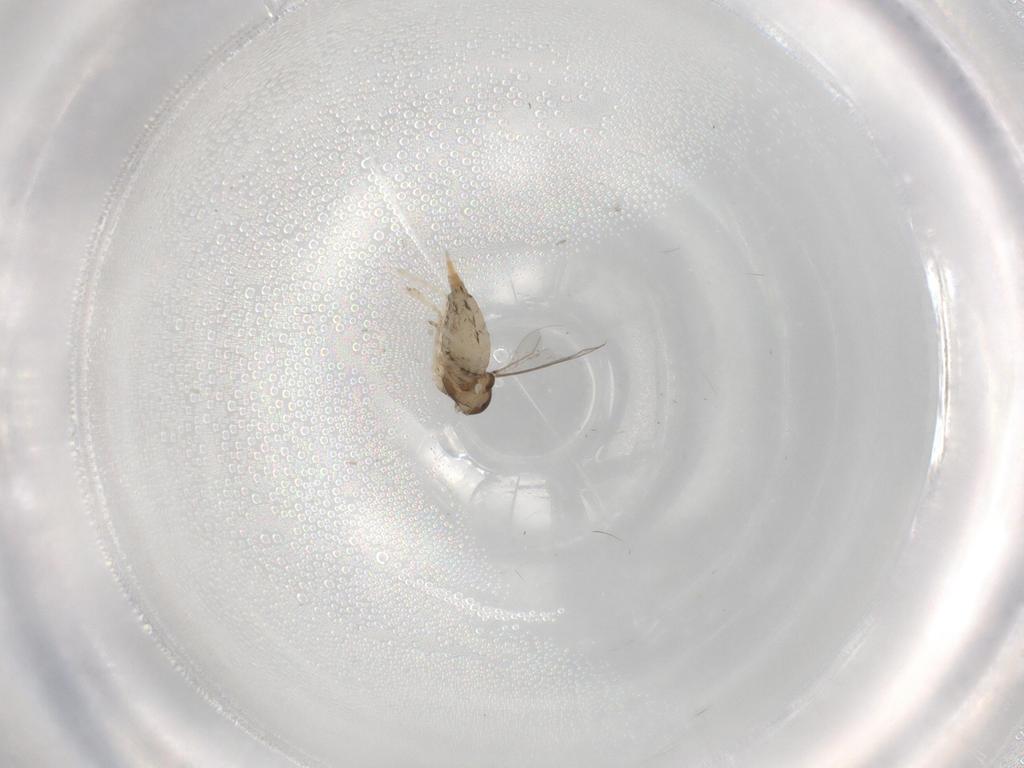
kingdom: Animalia
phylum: Arthropoda
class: Insecta
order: Diptera
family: Cecidomyiidae
